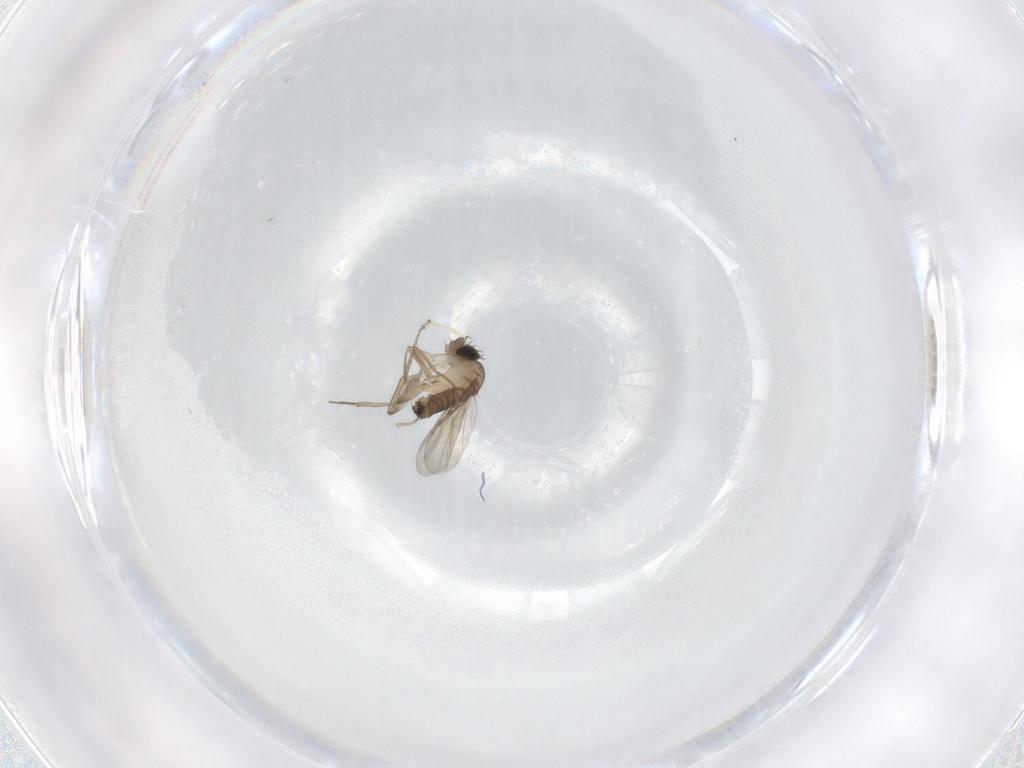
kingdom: Animalia
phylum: Arthropoda
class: Insecta
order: Diptera
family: Phoridae
